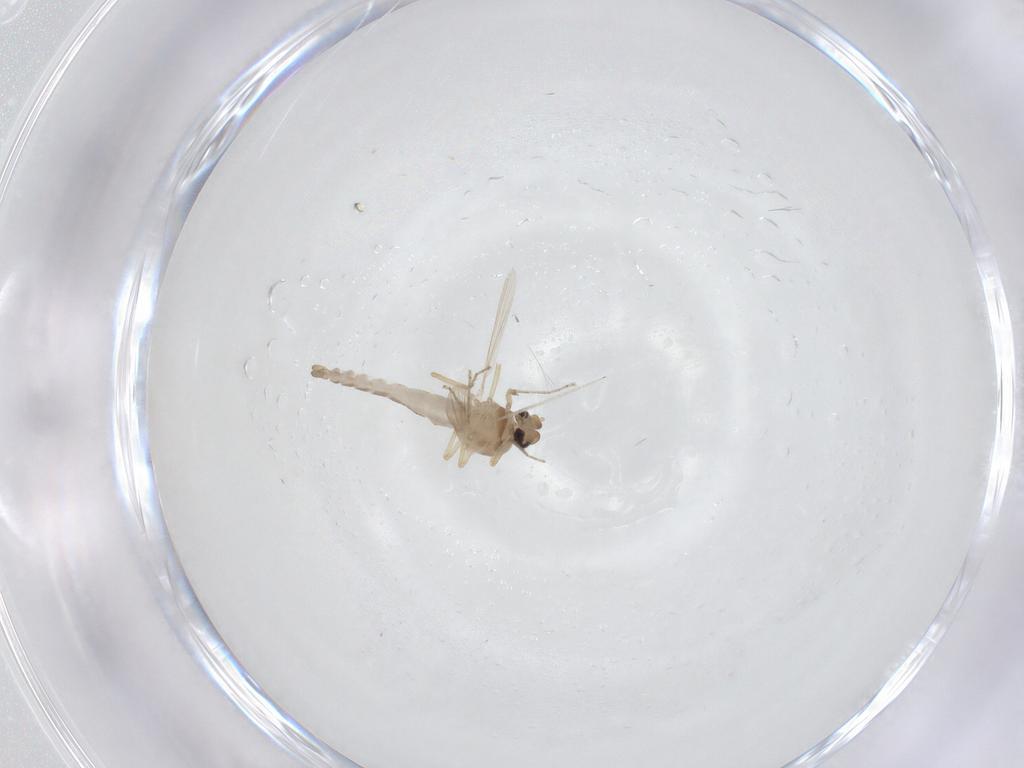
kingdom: Animalia
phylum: Arthropoda
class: Insecta
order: Diptera
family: Ceratopogonidae
